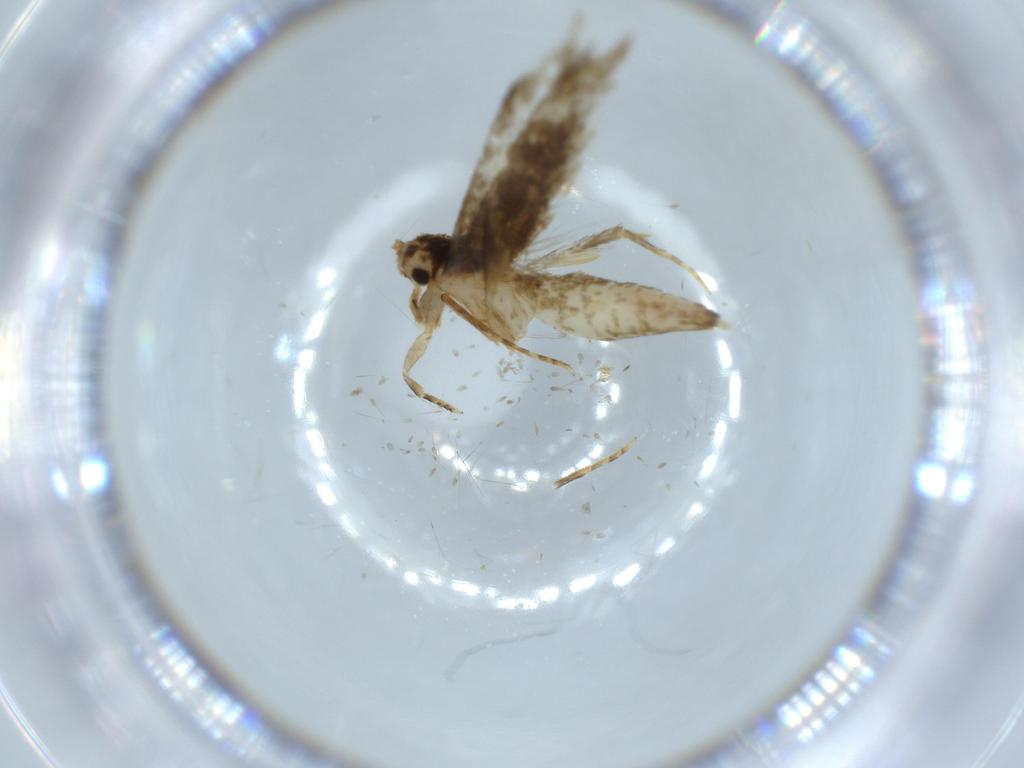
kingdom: Animalia
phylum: Arthropoda
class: Insecta
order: Lepidoptera
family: Tineidae
